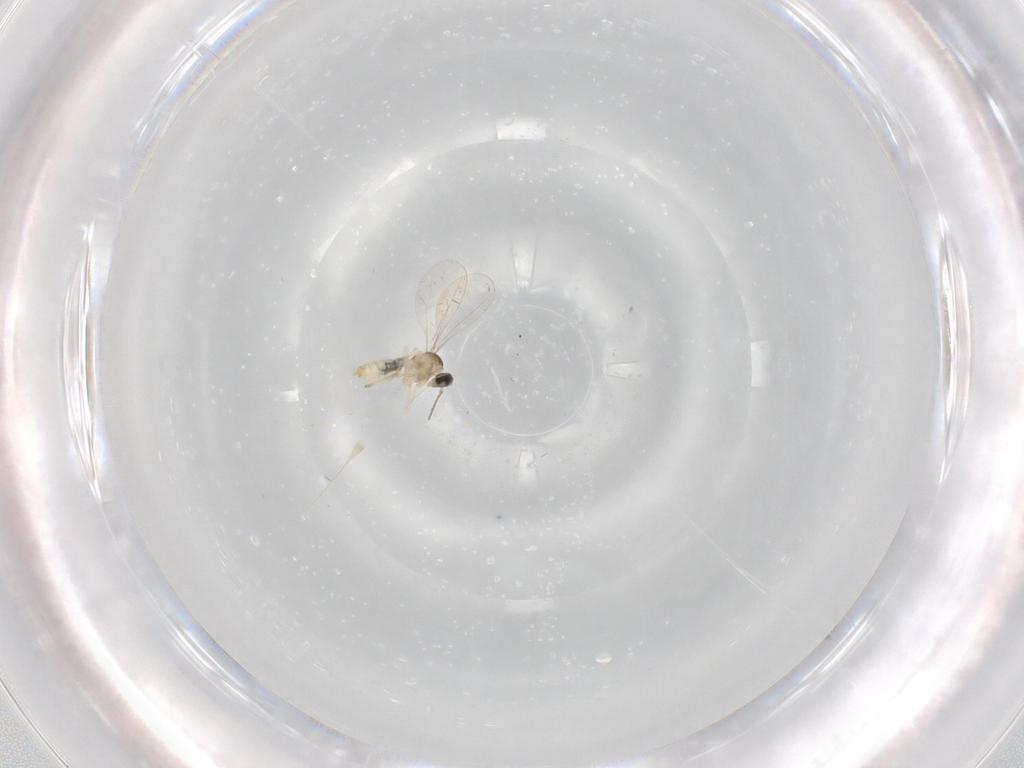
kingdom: Animalia
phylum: Arthropoda
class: Insecta
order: Diptera
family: Cecidomyiidae
